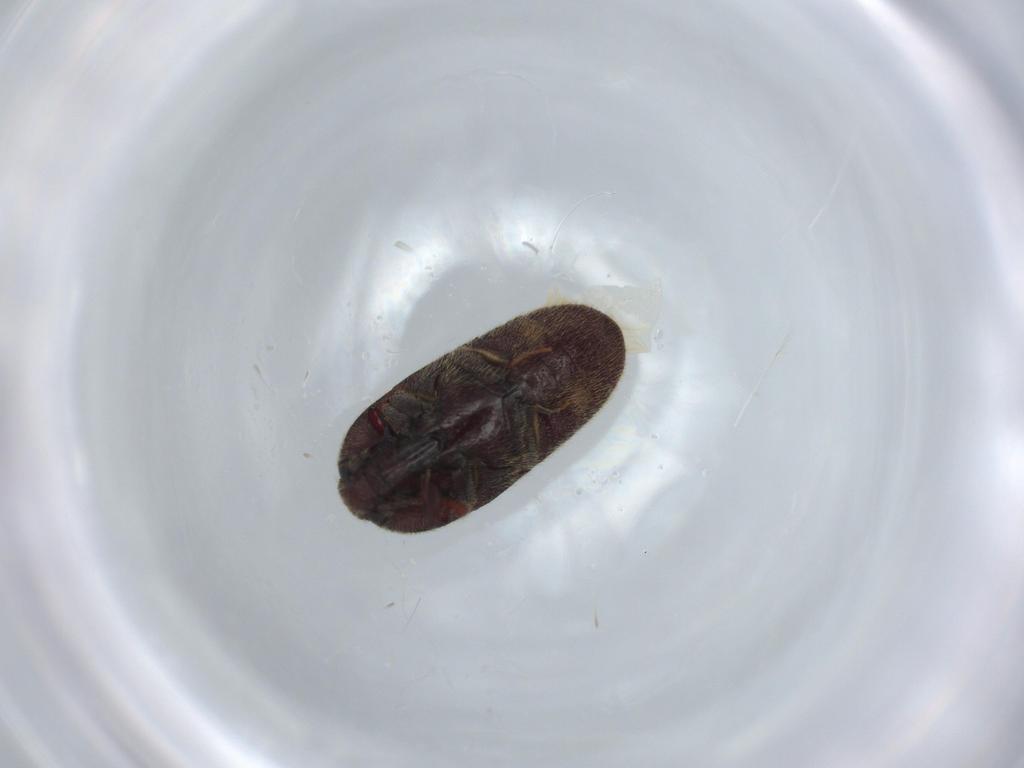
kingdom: Animalia
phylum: Arthropoda
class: Insecta
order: Coleoptera
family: Throscidae
